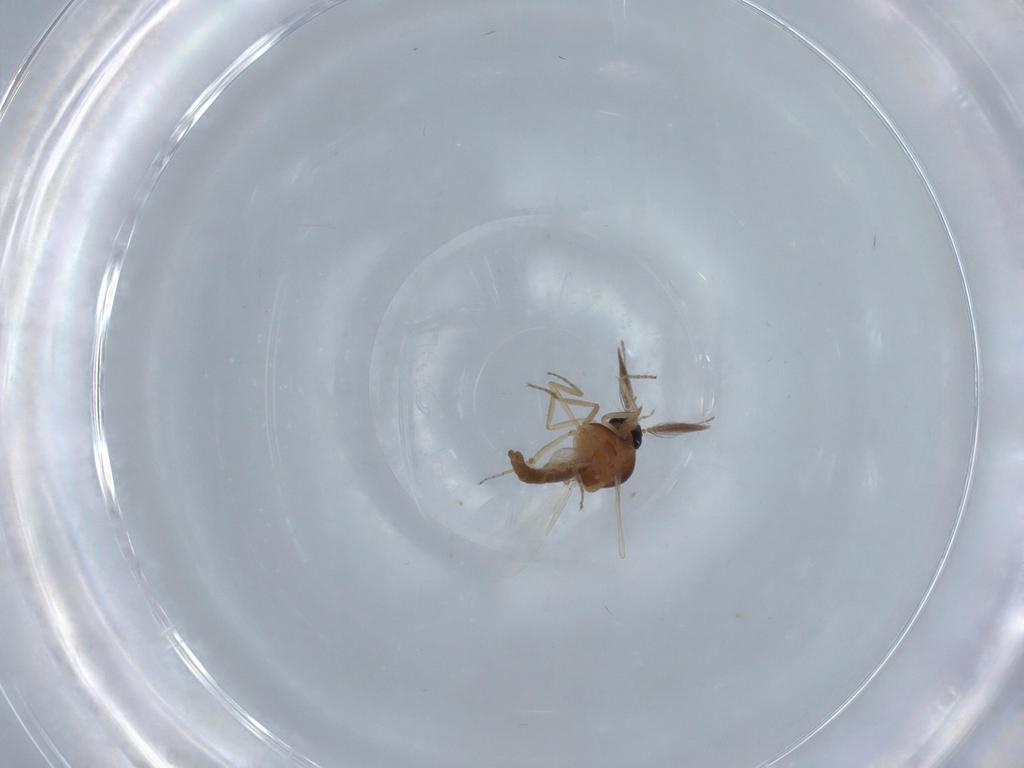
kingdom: Animalia
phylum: Arthropoda
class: Insecta
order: Diptera
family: Ceratopogonidae
